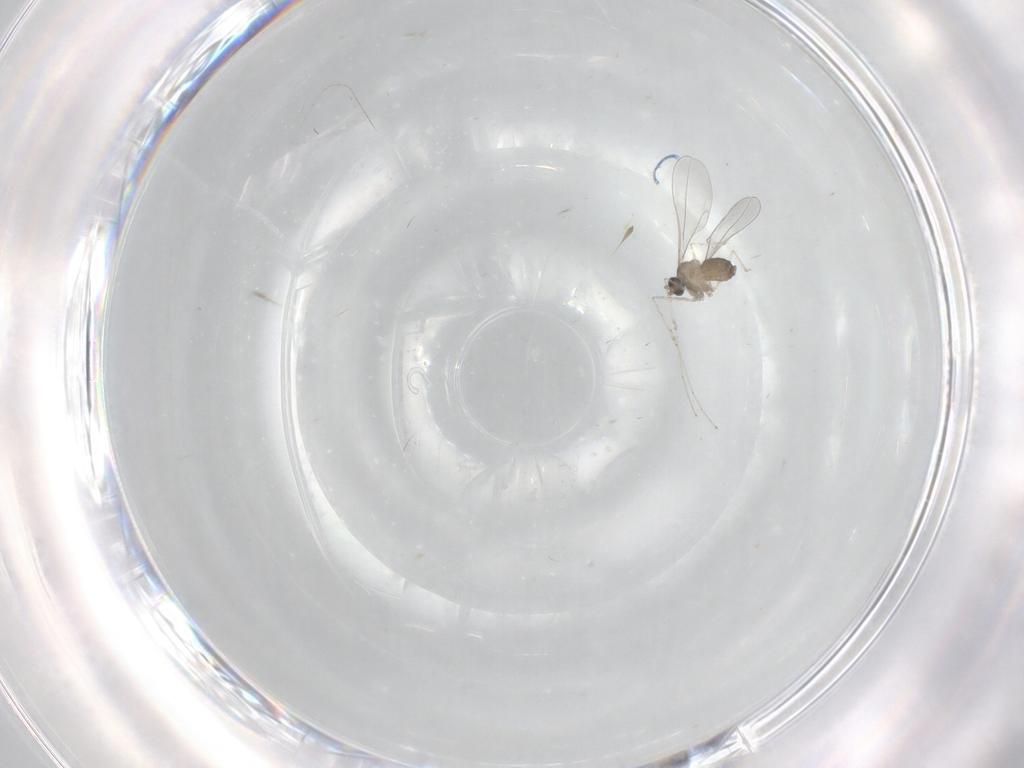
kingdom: Animalia
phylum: Arthropoda
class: Insecta
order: Diptera
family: Cecidomyiidae
